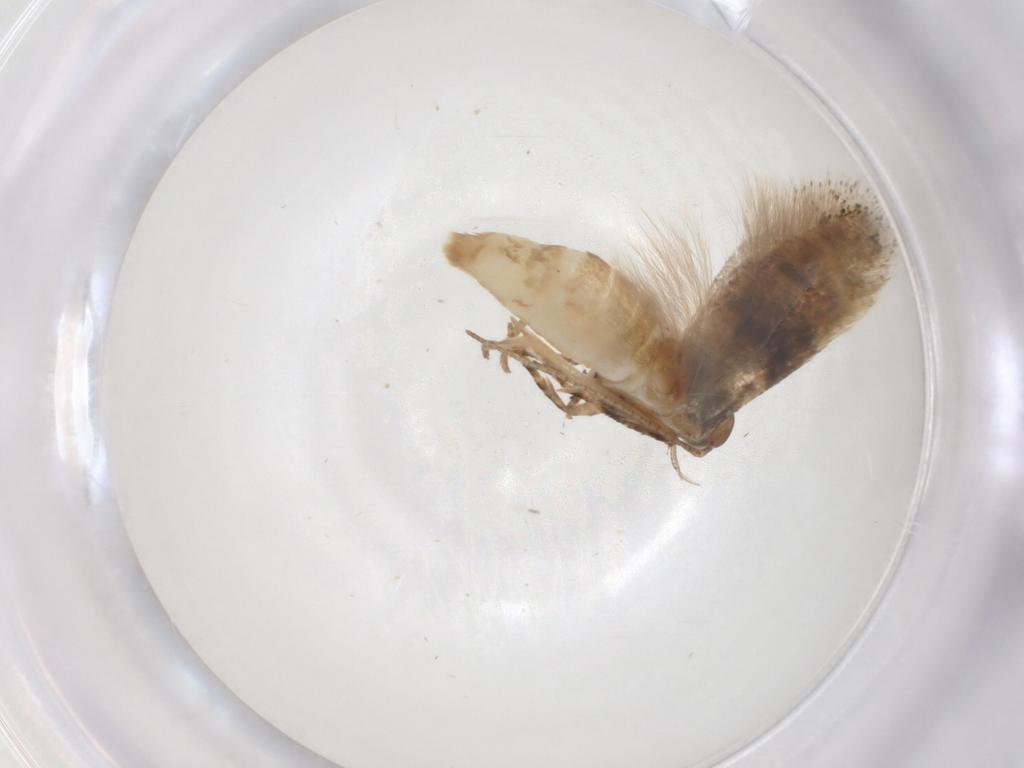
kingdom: Animalia
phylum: Arthropoda
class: Insecta
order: Lepidoptera
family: Gelechiidae
